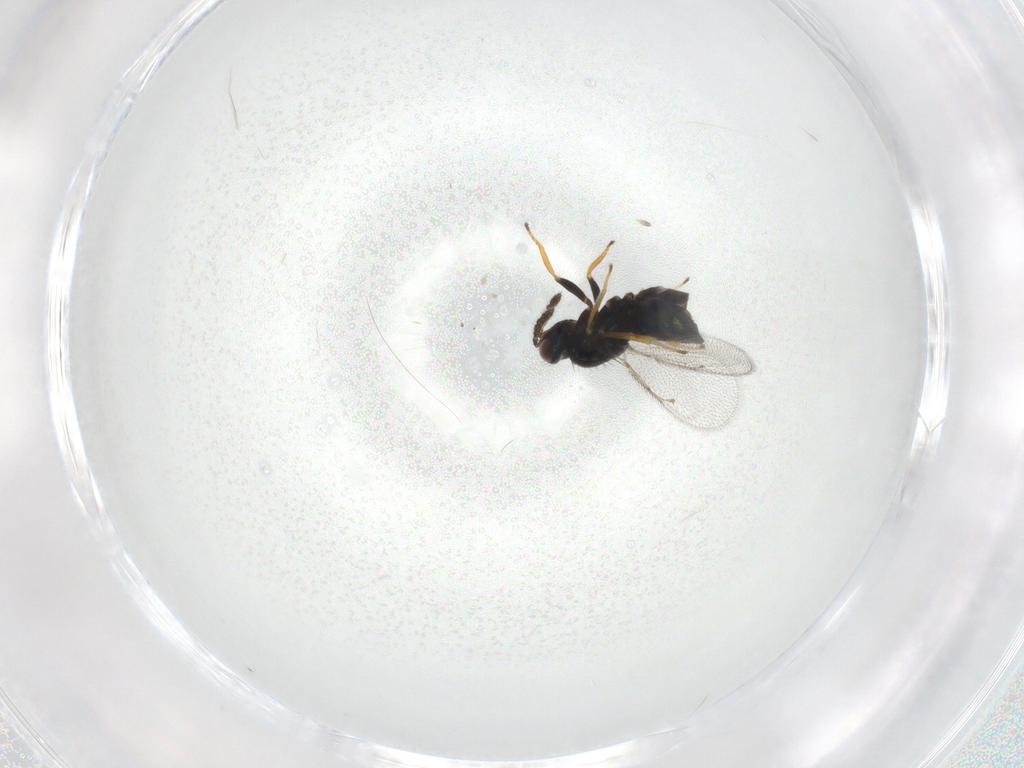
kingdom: Animalia
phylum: Arthropoda
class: Insecta
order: Hymenoptera
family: Eulophidae
